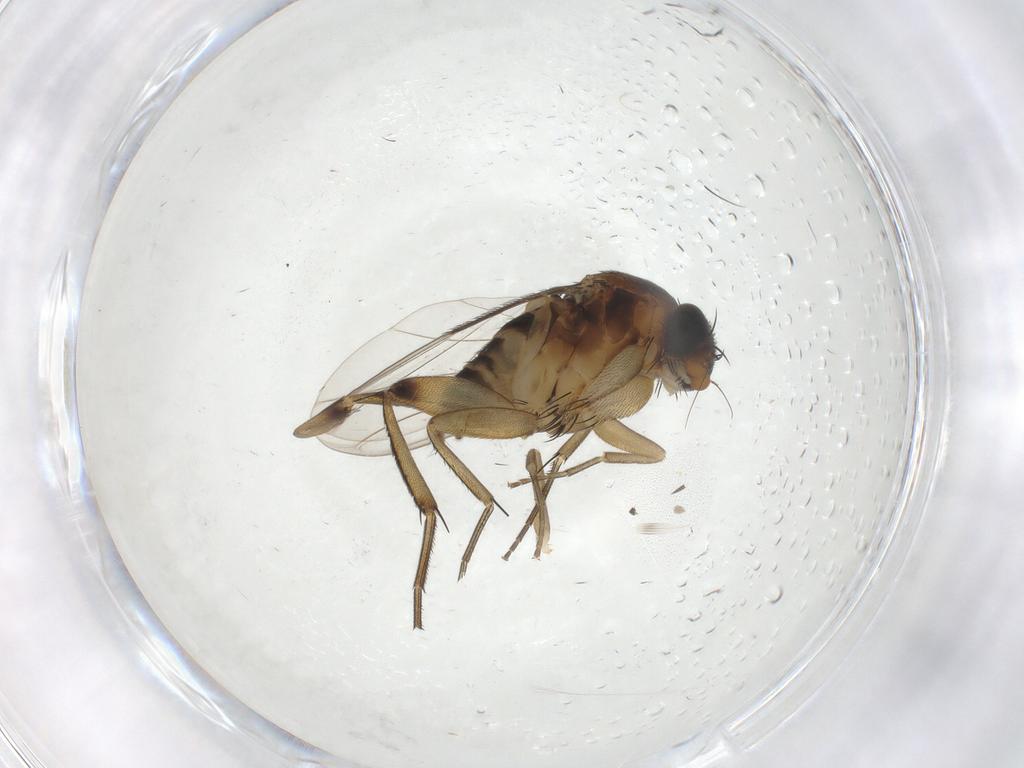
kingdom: Animalia
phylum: Arthropoda
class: Insecta
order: Diptera
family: Phoridae
